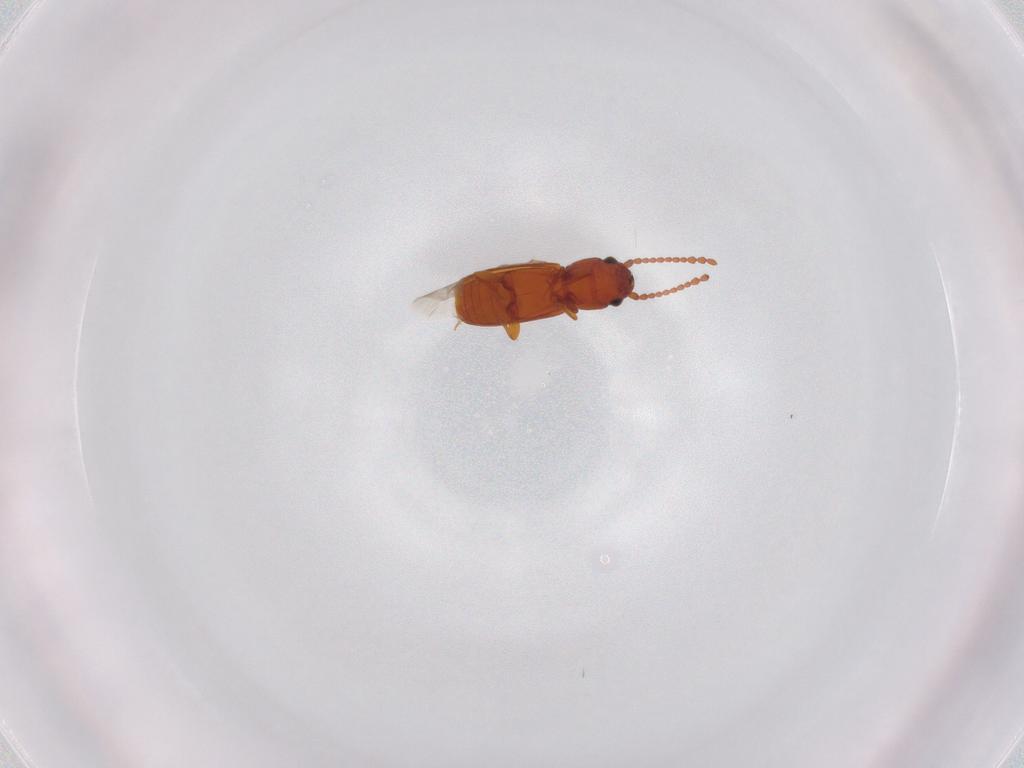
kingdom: Animalia
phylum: Arthropoda
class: Insecta
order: Coleoptera
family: Laemophloeidae
